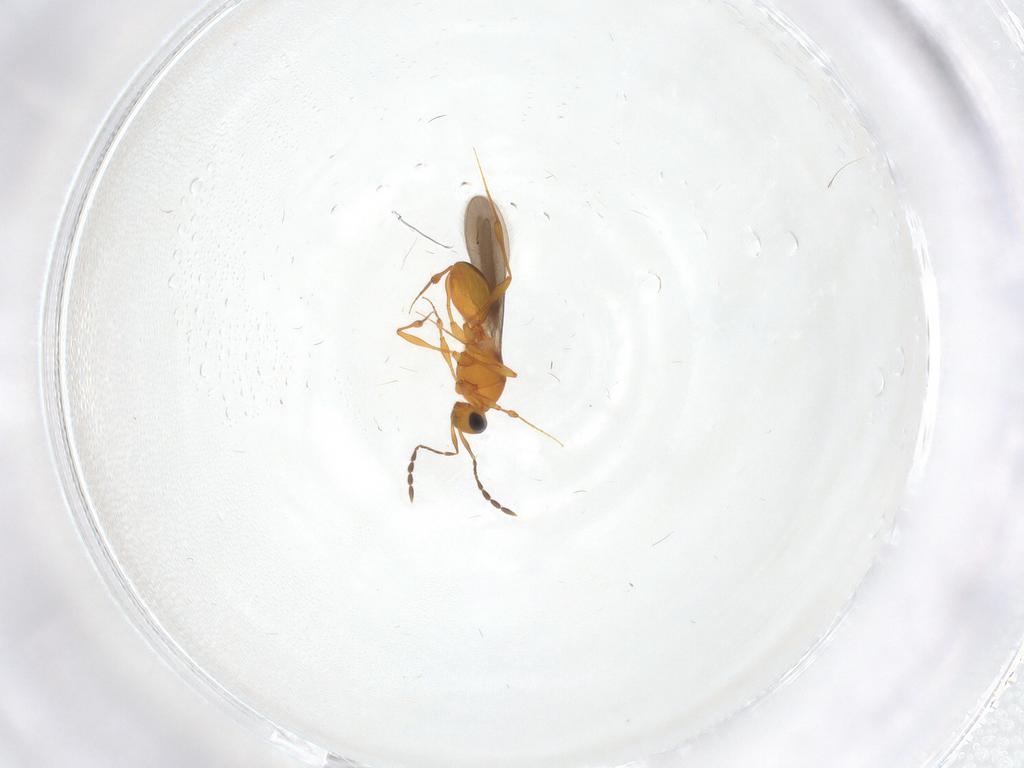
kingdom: Animalia
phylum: Arthropoda
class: Insecta
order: Hymenoptera
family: Platygastridae
